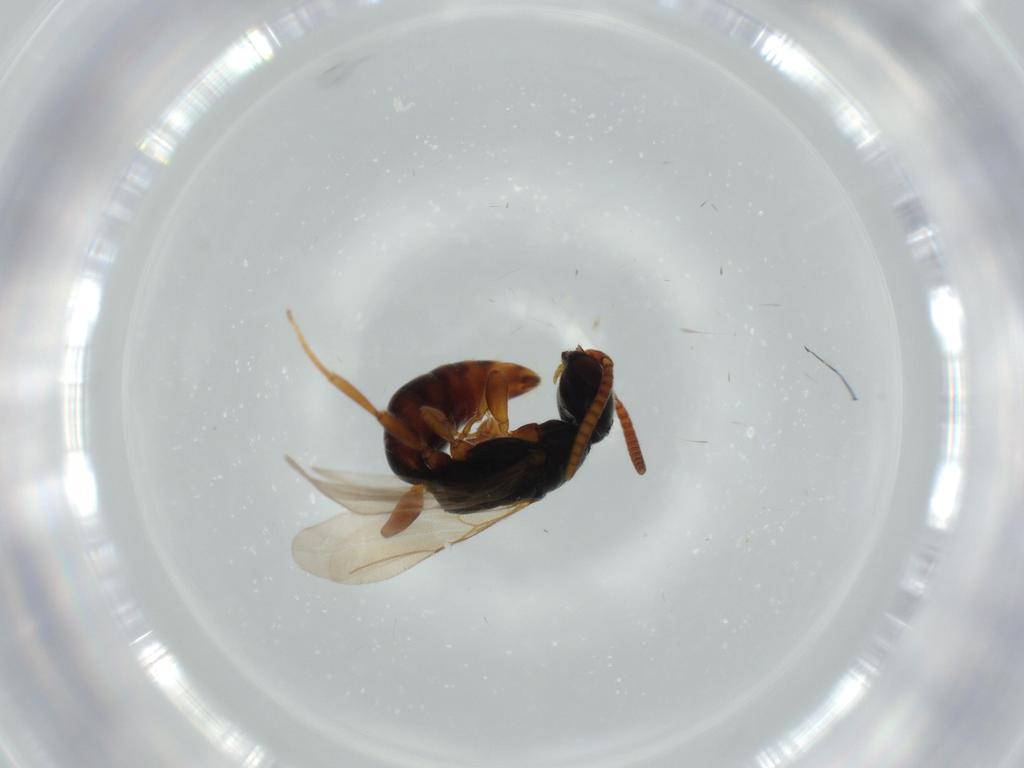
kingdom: Animalia
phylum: Arthropoda
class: Insecta
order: Hymenoptera
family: Bethylidae
